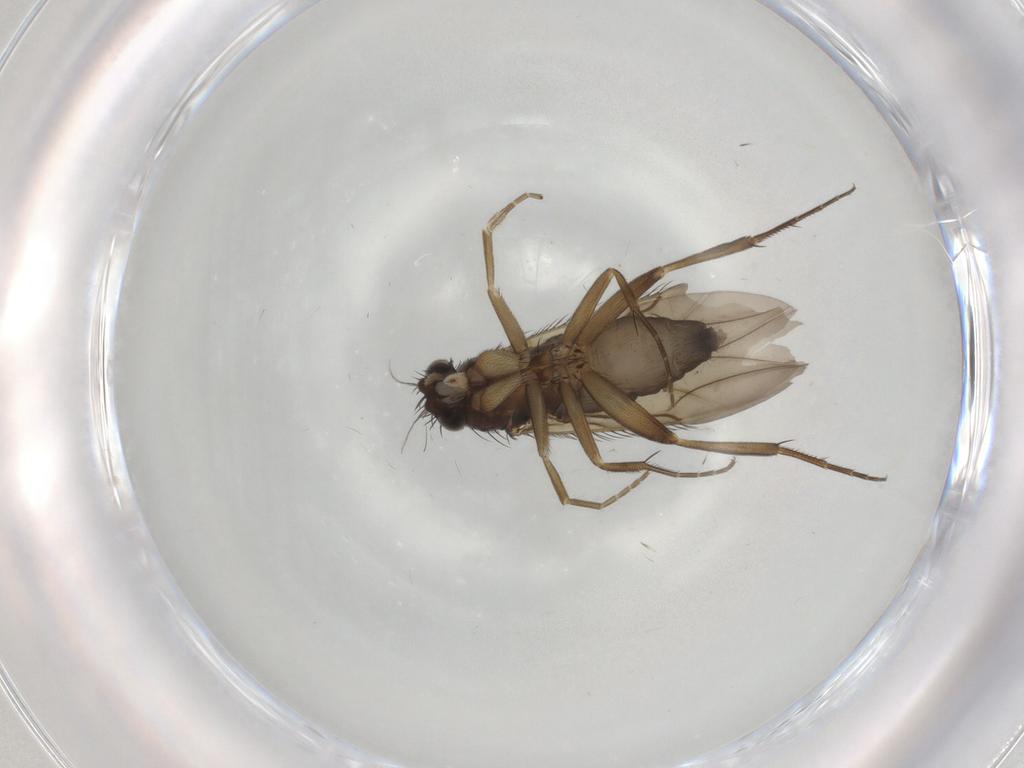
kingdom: Animalia
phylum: Arthropoda
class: Insecta
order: Diptera
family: Phoridae
